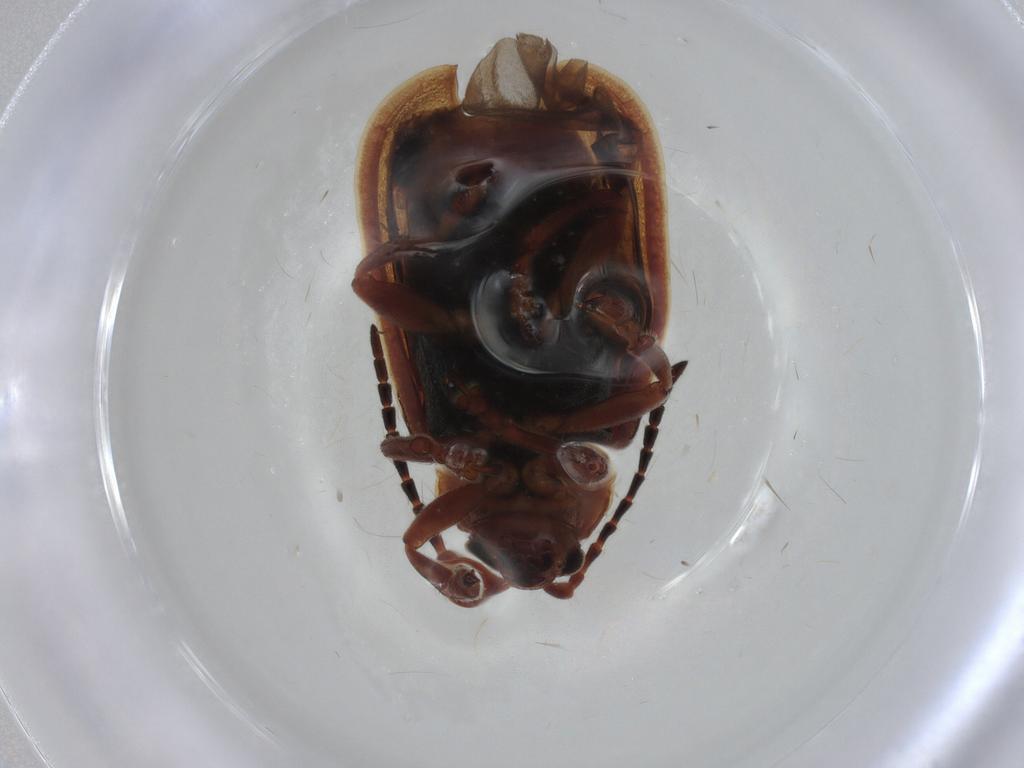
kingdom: Animalia
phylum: Arthropoda
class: Insecta
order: Coleoptera
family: Chrysomelidae
